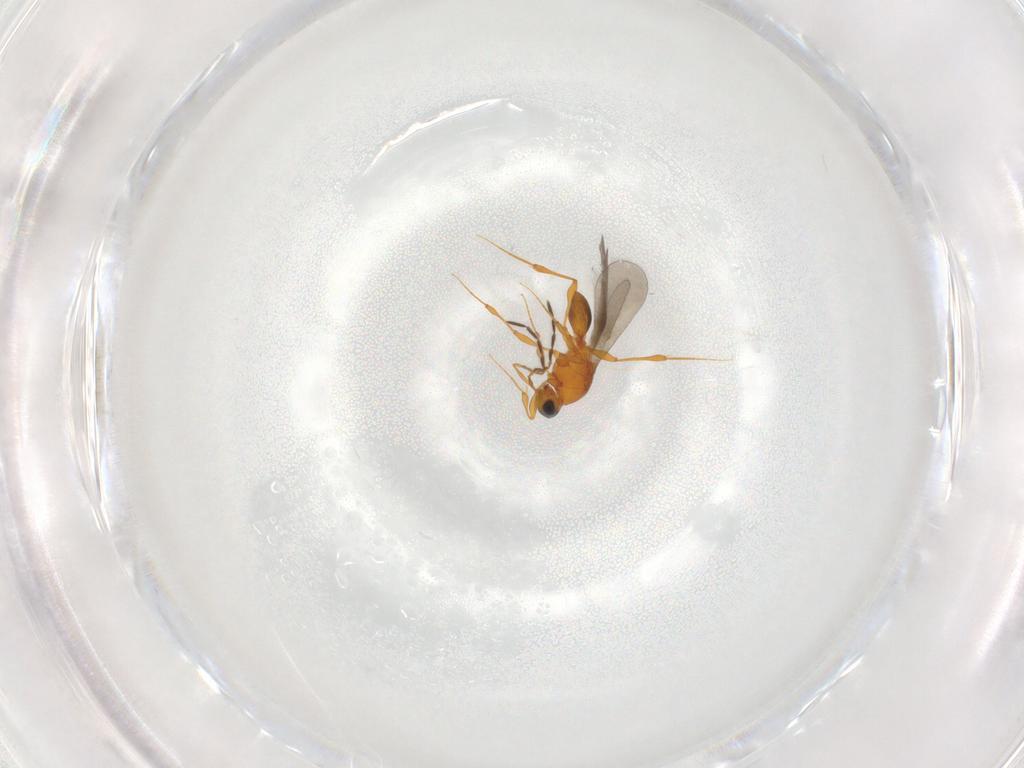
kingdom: Animalia
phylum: Arthropoda
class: Insecta
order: Hymenoptera
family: Platygastridae
